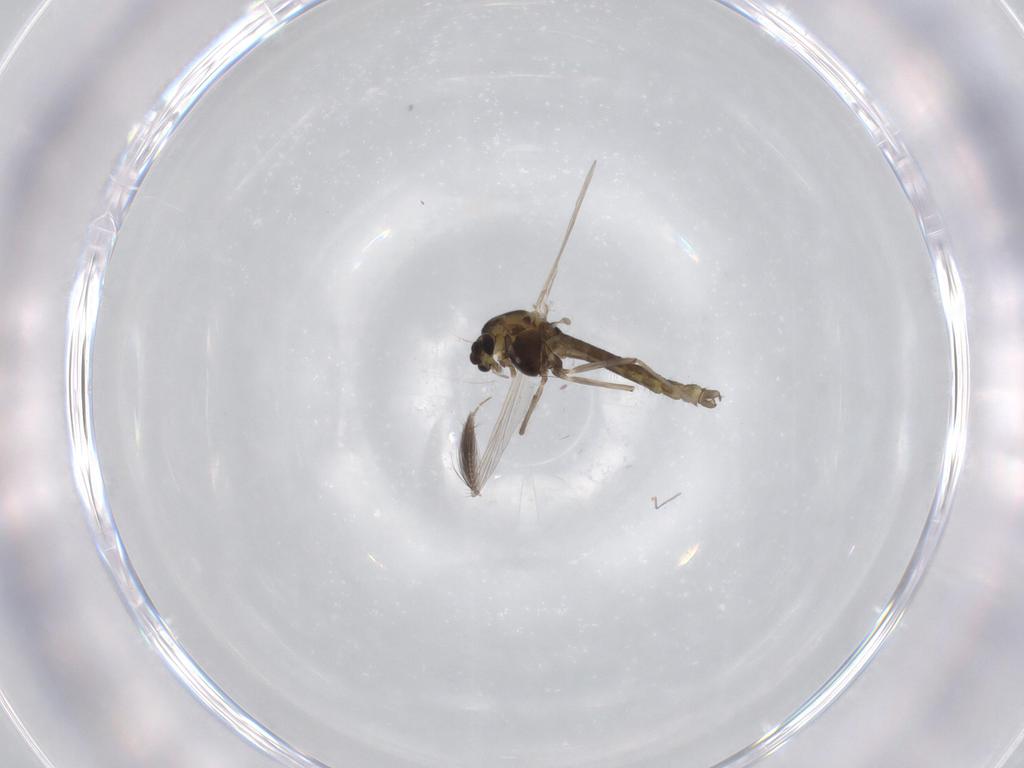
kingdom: Animalia
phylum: Arthropoda
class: Insecta
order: Diptera
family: Chironomidae
